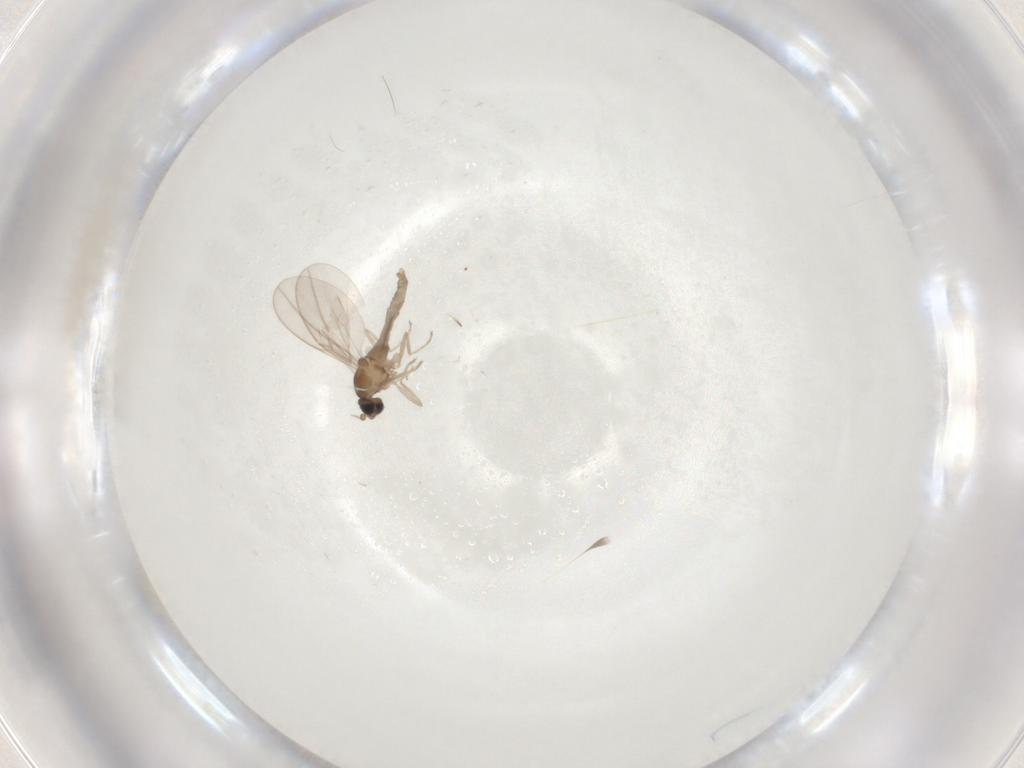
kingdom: Animalia
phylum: Arthropoda
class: Insecta
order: Diptera
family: Cecidomyiidae
